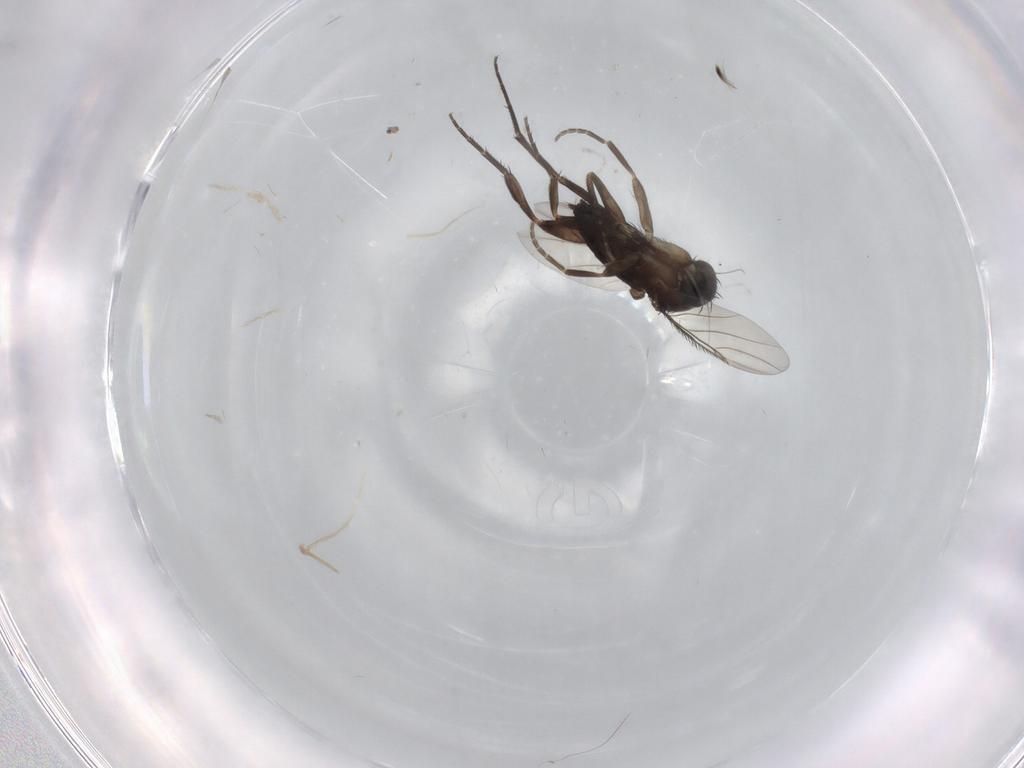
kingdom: Animalia
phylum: Arthropoda
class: Insecta
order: Diptera
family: Phoridae
